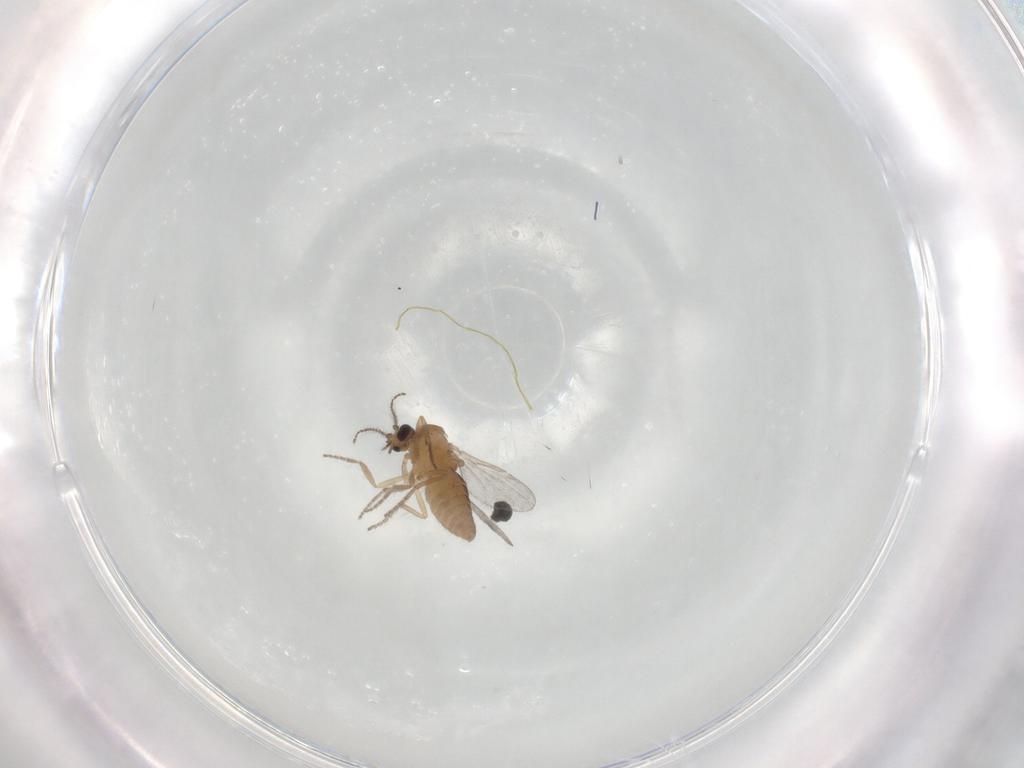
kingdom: Animalia
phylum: Arthropoda
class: Insecta
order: Diptera
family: Ceratopogonidae
